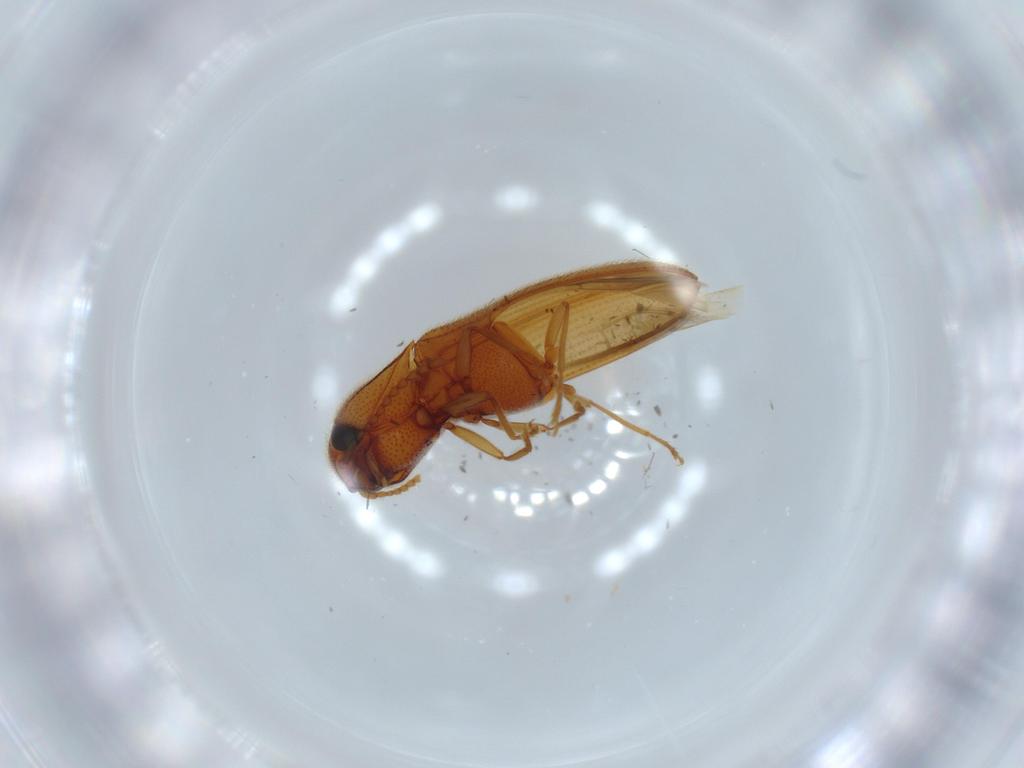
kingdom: Animalia
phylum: Arthropoda
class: Insecta
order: Coleoptera
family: Elateridae
